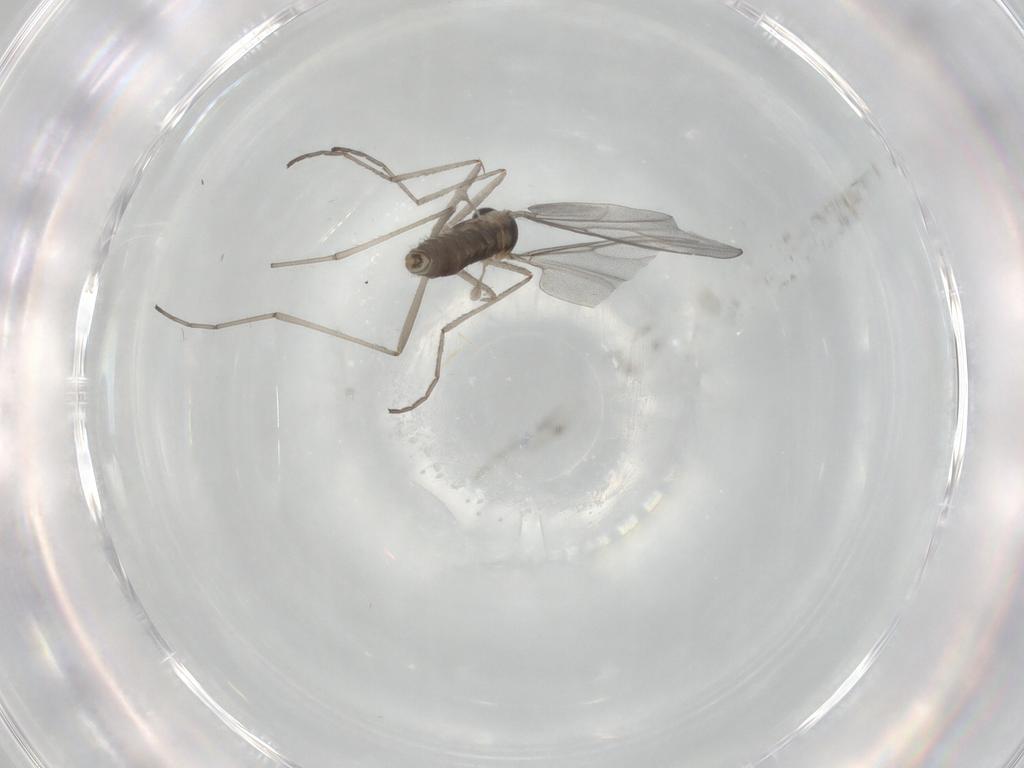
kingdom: Animalia
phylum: Arthropoda
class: Insecta
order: Diptera
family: Cecidomyiidae
